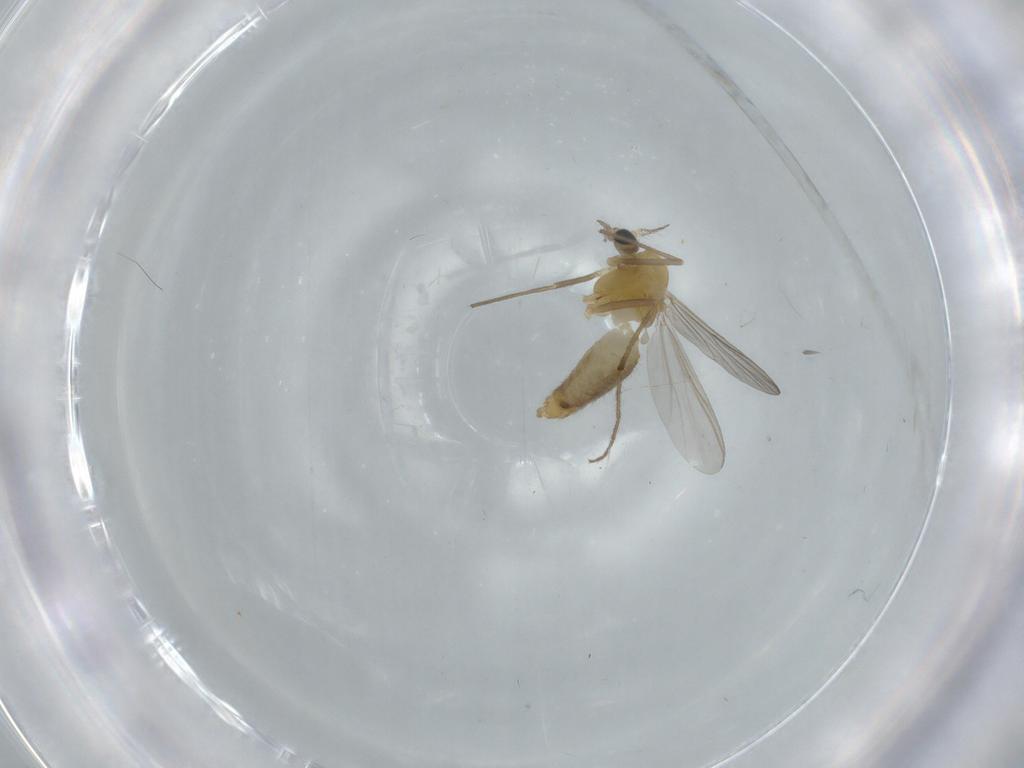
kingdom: Animalia
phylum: Arthropoda
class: Insecta
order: Diptera
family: Chironomidae
